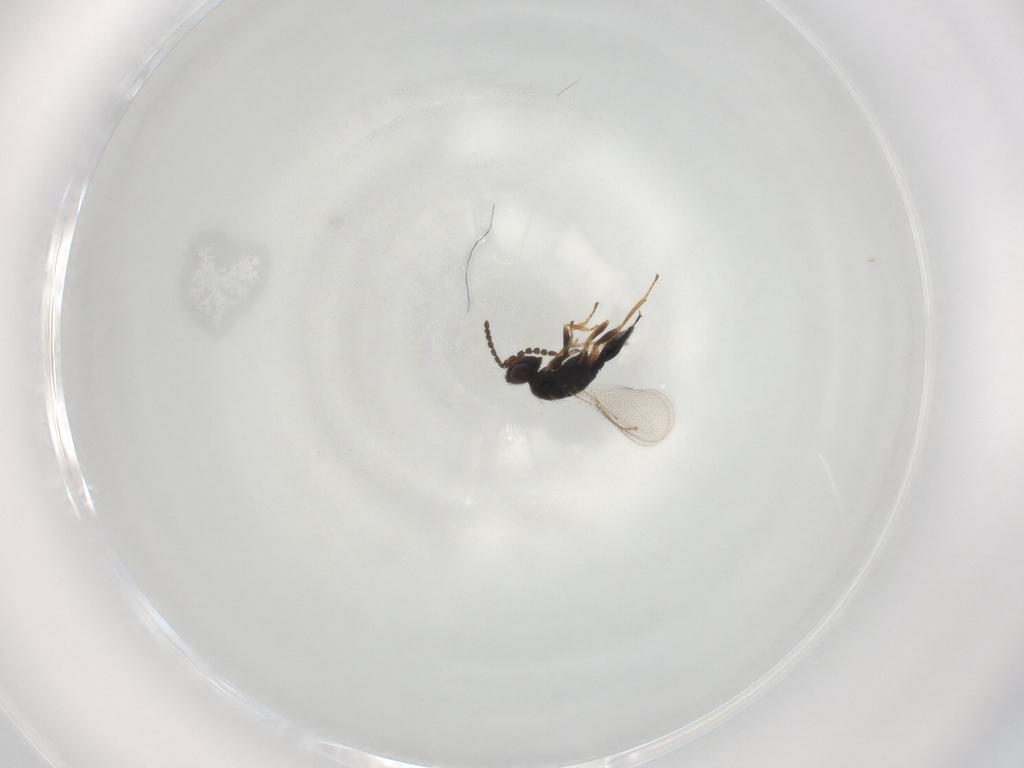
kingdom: Animalia
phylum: Arthropoda
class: Insecta
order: Hymenoptera
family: Eulophidae
